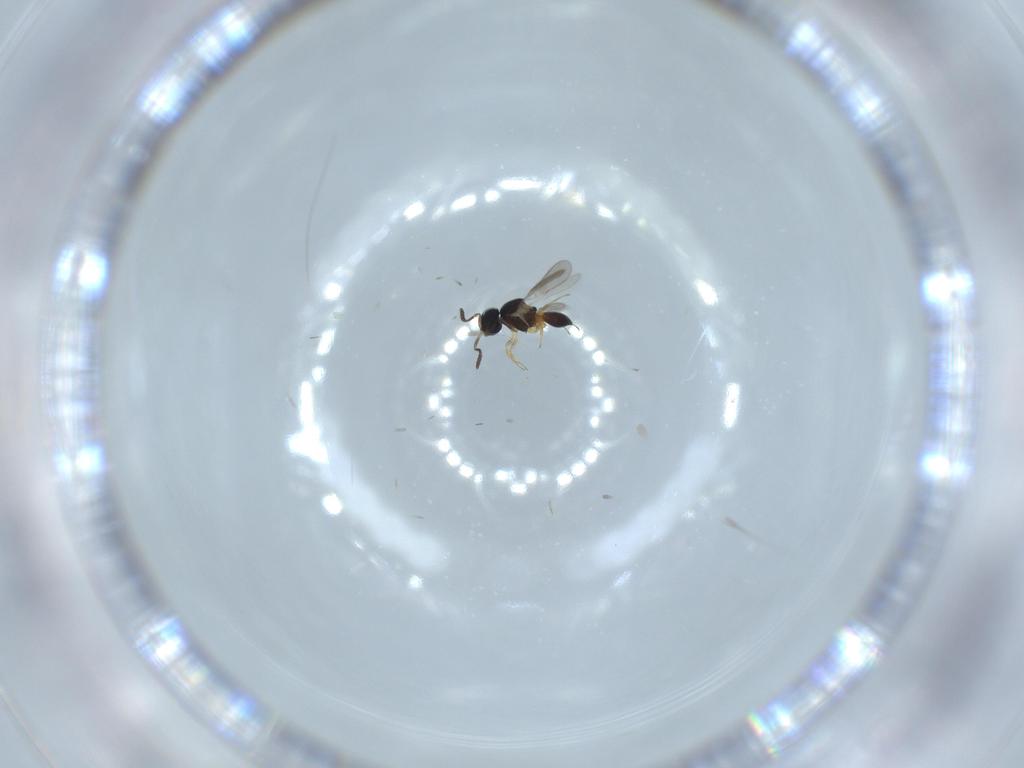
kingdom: Animalia
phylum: Arthropoda
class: Insecta
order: Hymenoptera
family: Scelionidae
